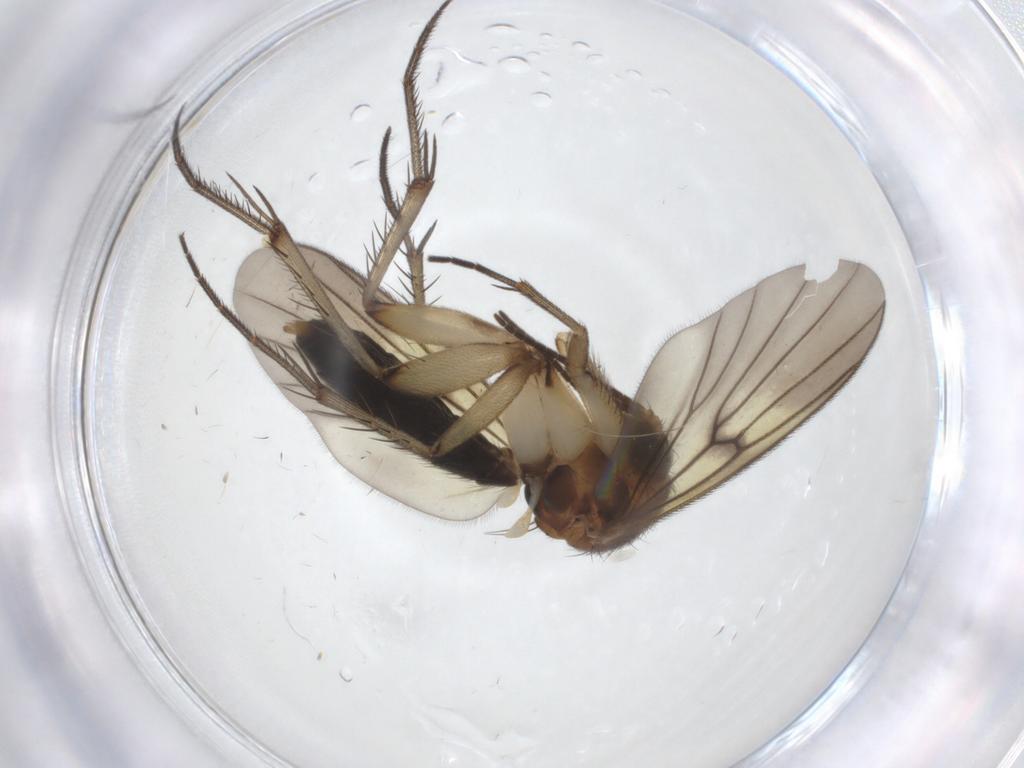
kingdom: Animalia
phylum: Arthropoda
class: Insecta
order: Diptera
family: Mycetophilidae
